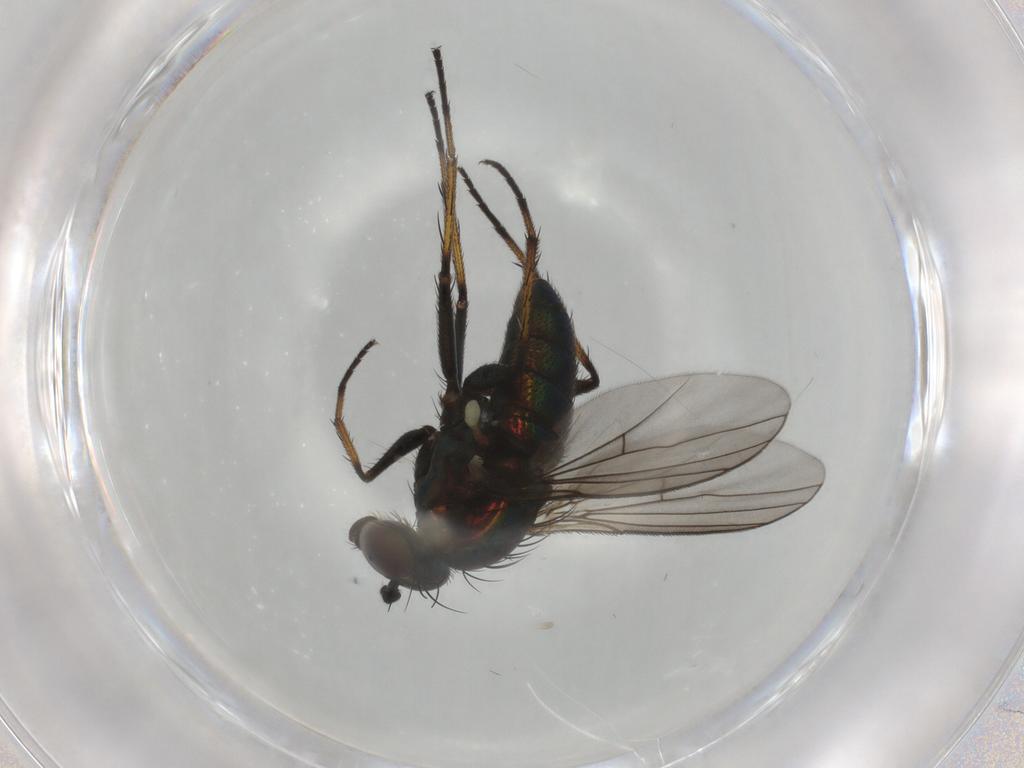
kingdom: Animalia
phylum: Arthropoda
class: Insecta
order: Diptera
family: Dolichopodidae
